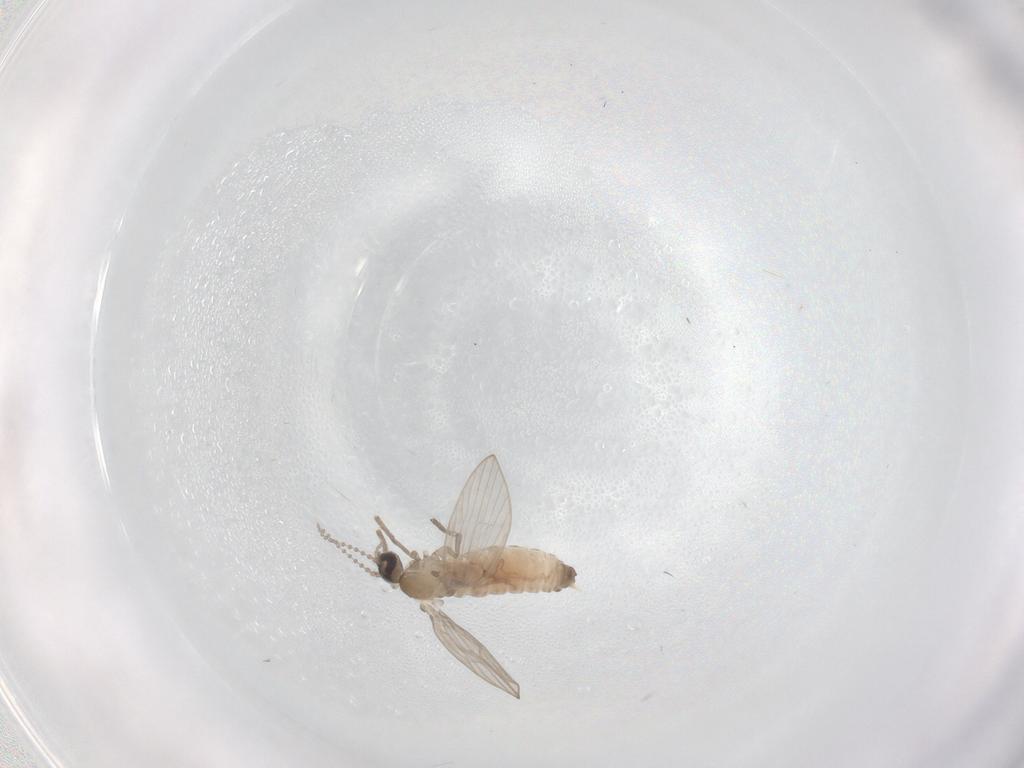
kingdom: Animalia
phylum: Arthropoda
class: Insecta
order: Diptera
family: Psychodidae
